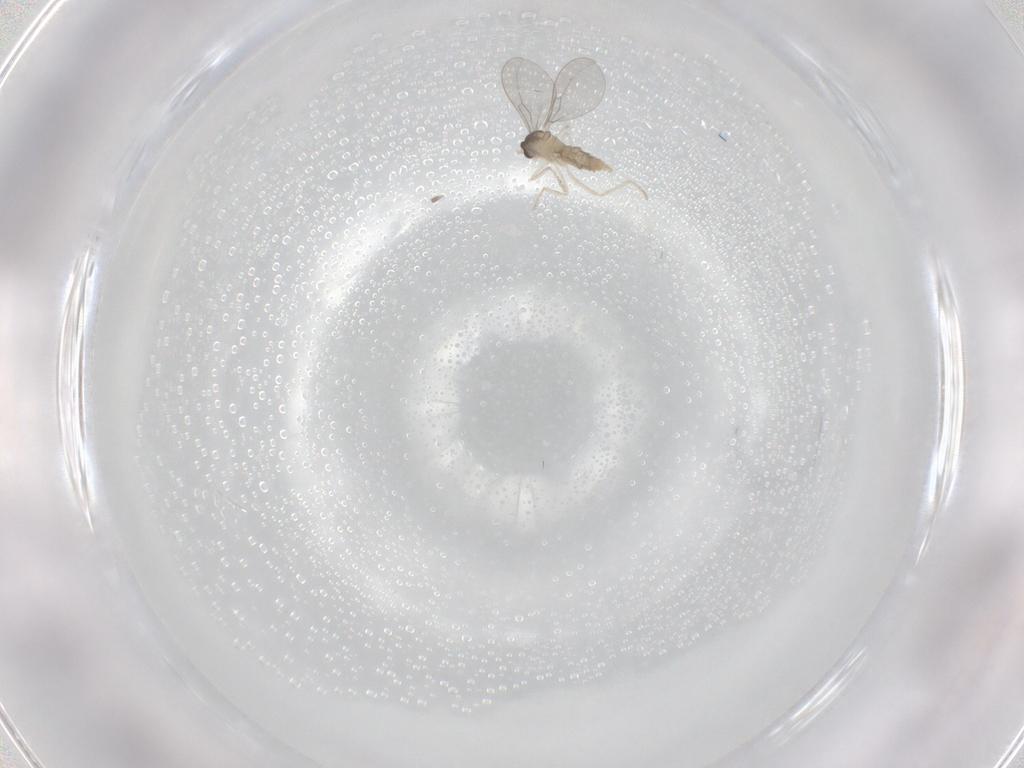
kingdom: Animalia
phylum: Arthropoda
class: Insecta
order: Diptera
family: Cecidomyiidae
